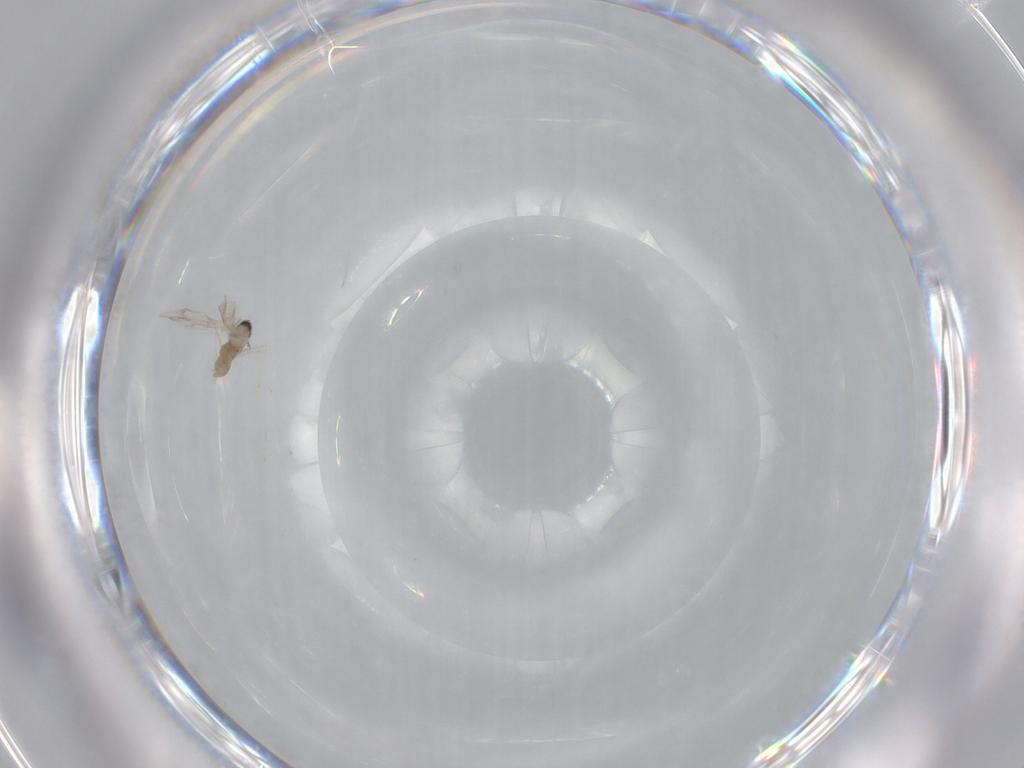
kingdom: Animalia
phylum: Arthropoda
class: Insecta
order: Diptera
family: Cecidomyiidae
